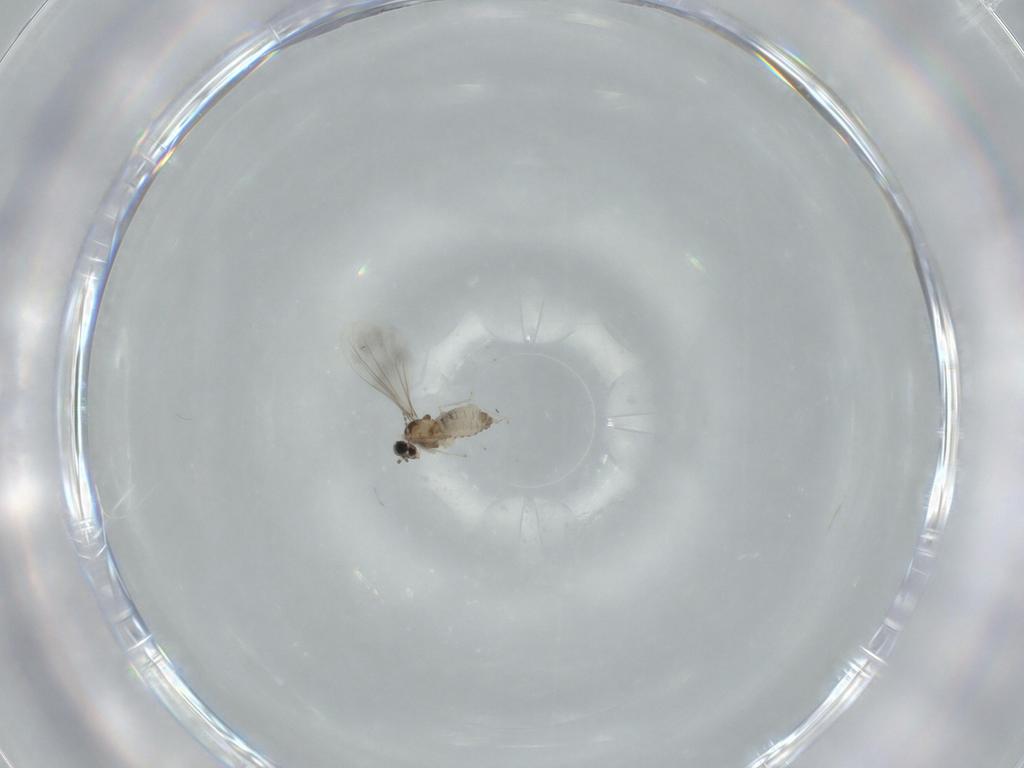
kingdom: Animalia
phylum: Arthropoda
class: Insecta
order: Diptera
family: Cecidomyiidae
